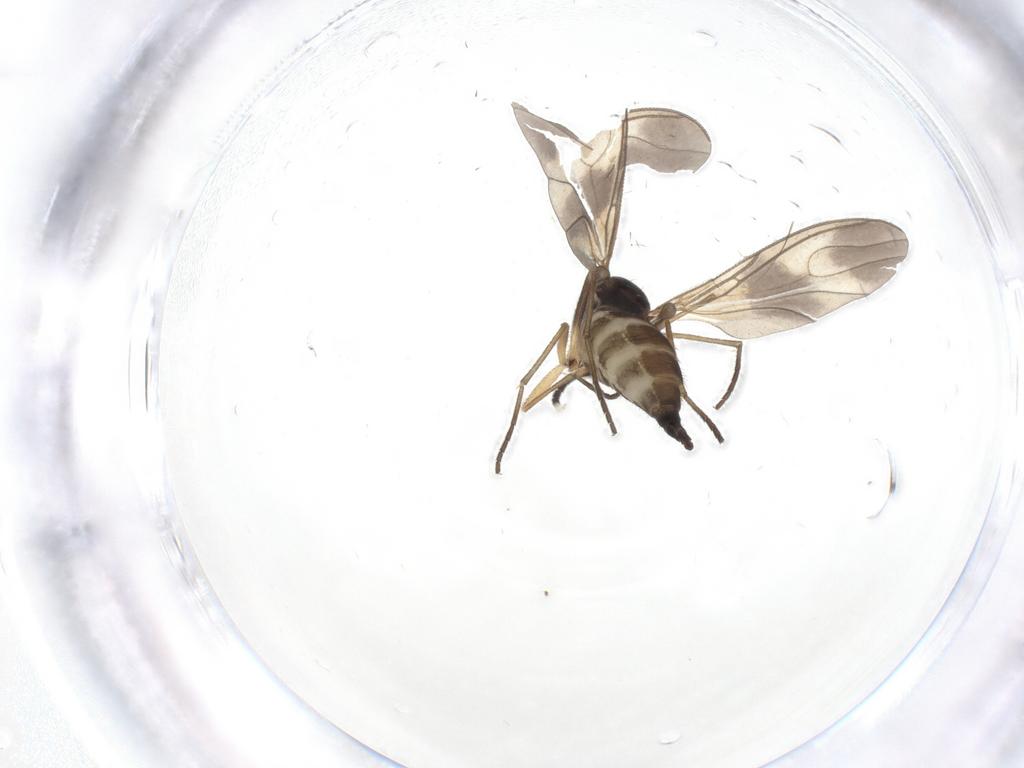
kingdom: Animalia
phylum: Arthropoda
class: Insecta
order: Diptera
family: Sciaridae
